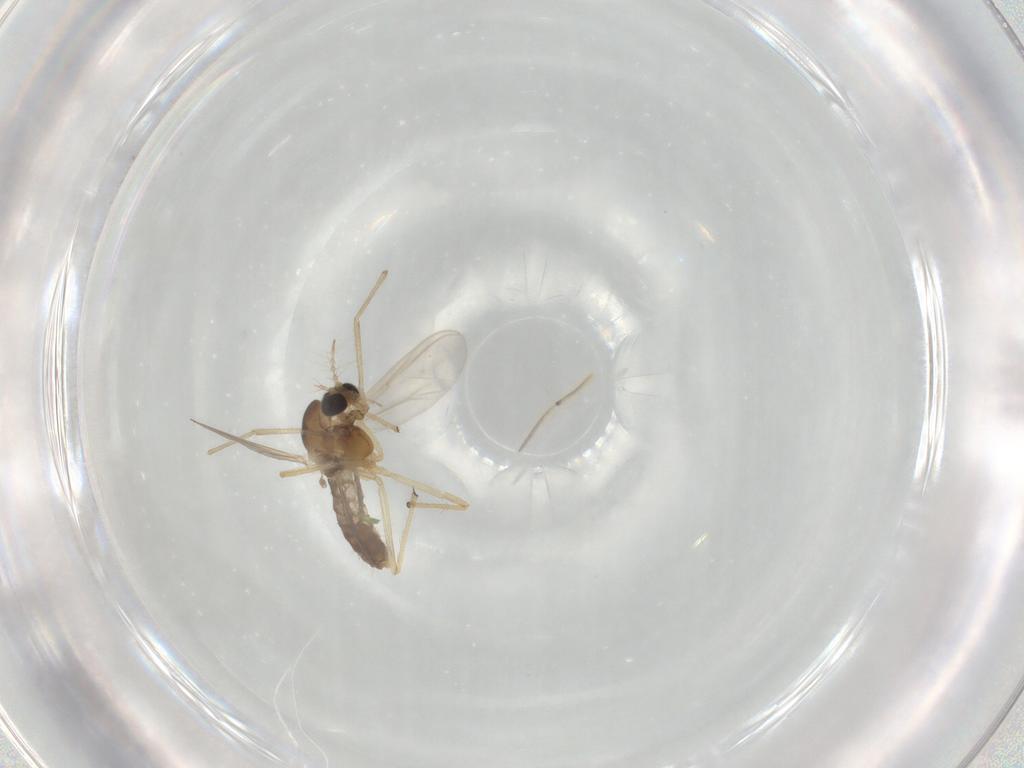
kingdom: Animalia
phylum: Arthropoda
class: Insecta
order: Diptera
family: Chironomidae
